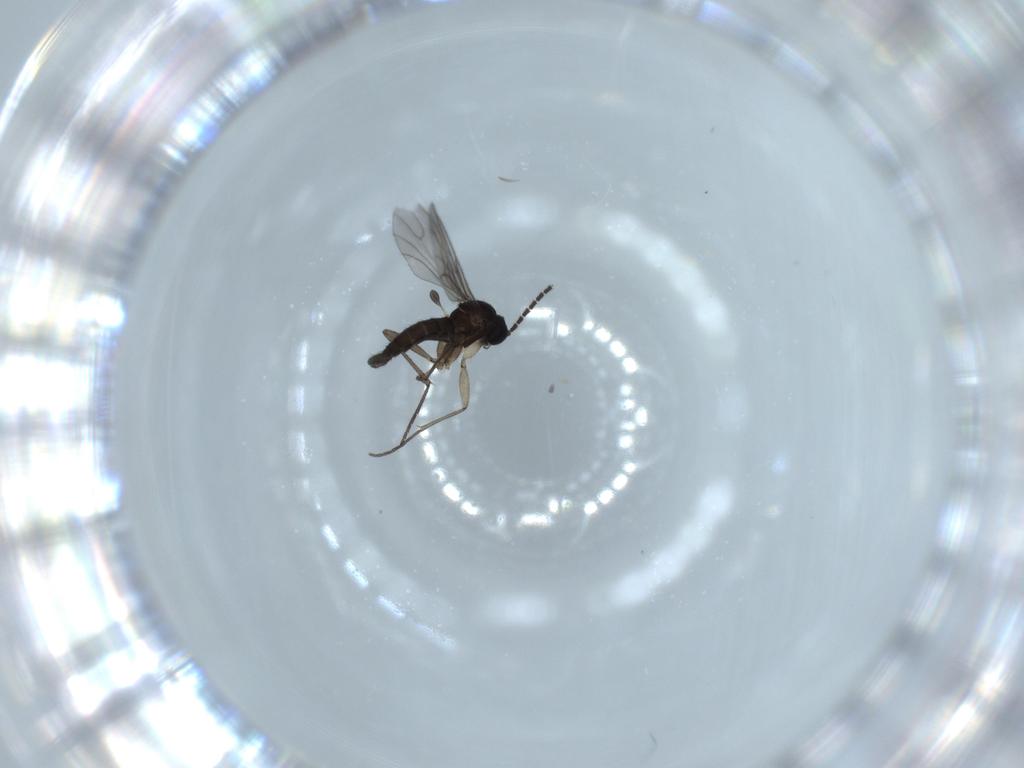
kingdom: Animalia
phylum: Arthropoda
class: Insecta
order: Diptera
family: Sciaridae
